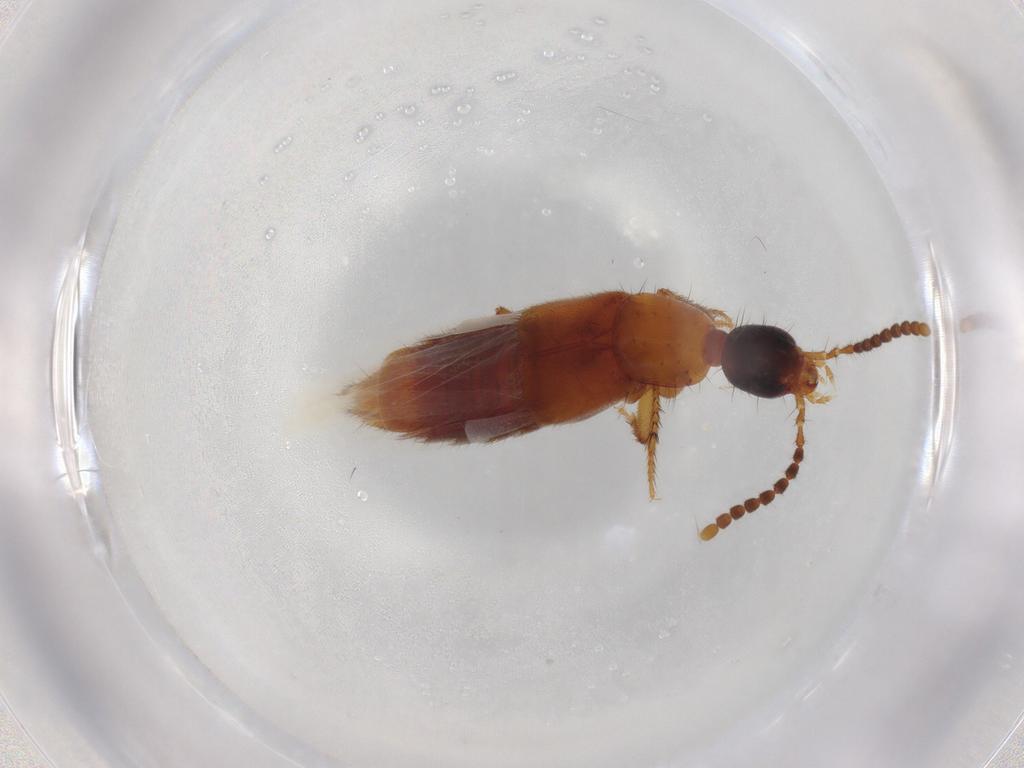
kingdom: Animalia
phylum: Arthropoda
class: Insecta
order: Coleoptera
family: Staphylinidae
